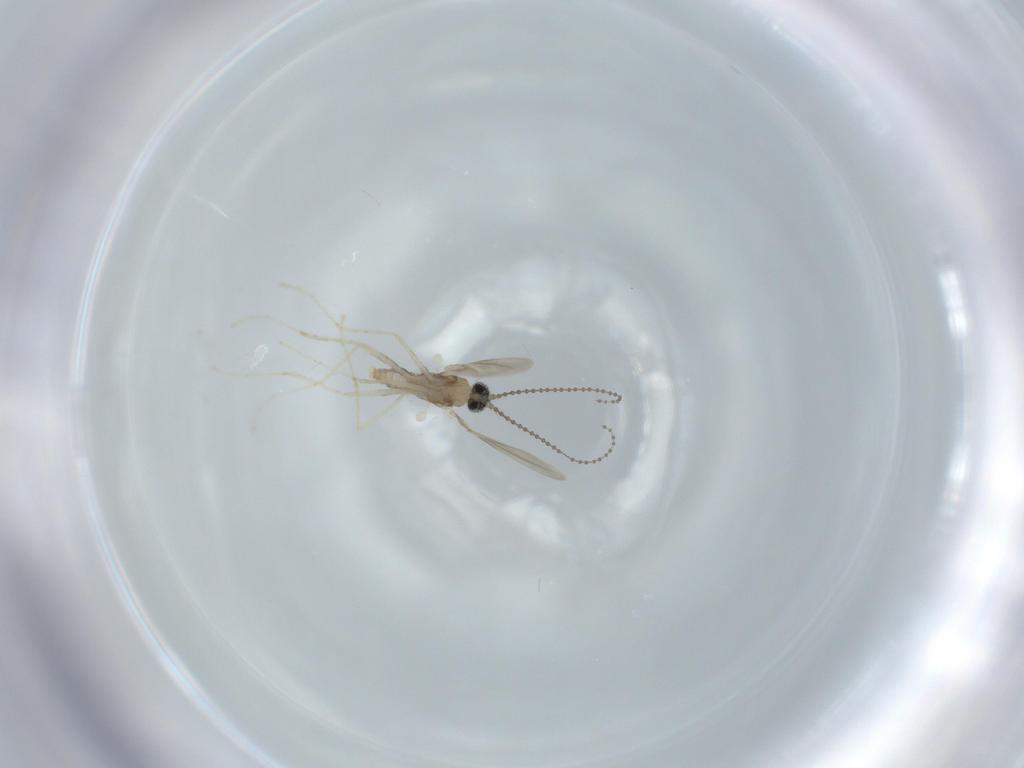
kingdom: Animalia
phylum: Arthropoda
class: Insecta
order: Diptera
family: Cecidomyiidae
